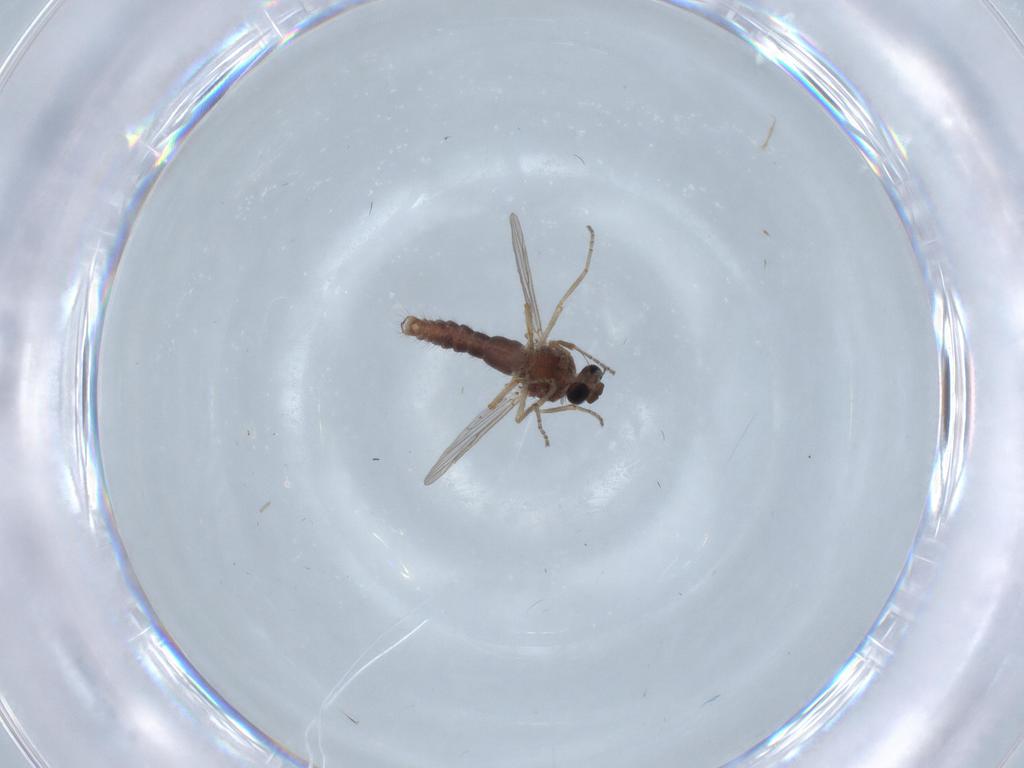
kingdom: Animalia
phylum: Arthropoda
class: Insecta
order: Diptera
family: Ceratopogonidae
